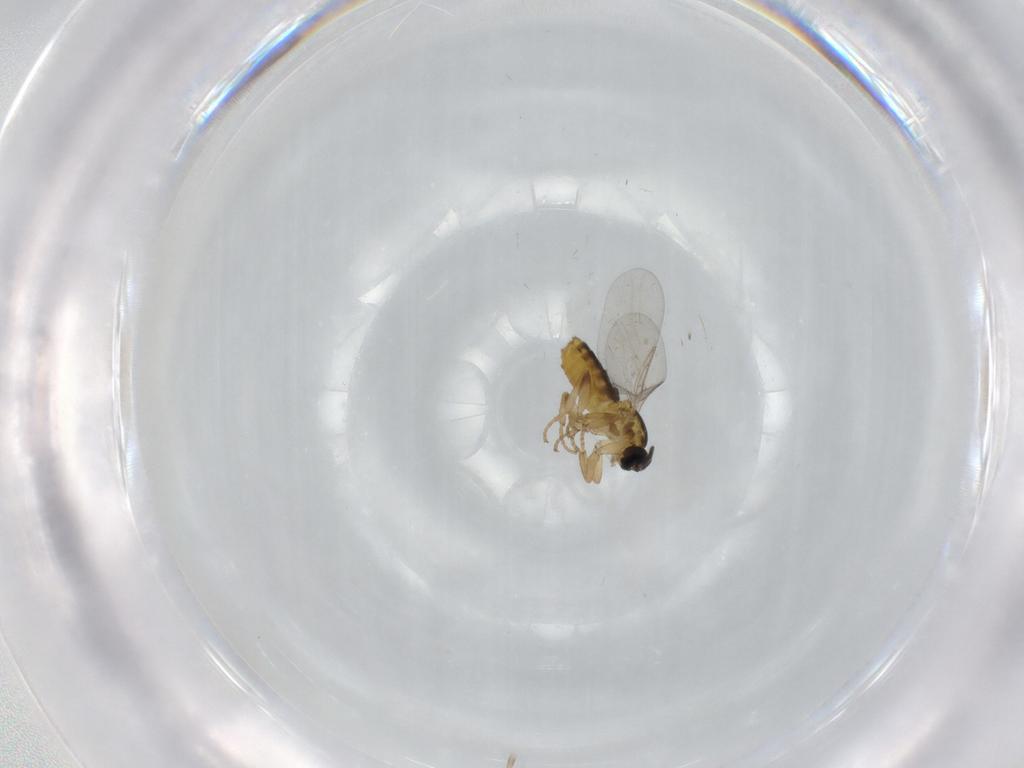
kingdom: Animalia
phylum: Arthropoda
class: Insecta
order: Diptera
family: Scatopsidae
